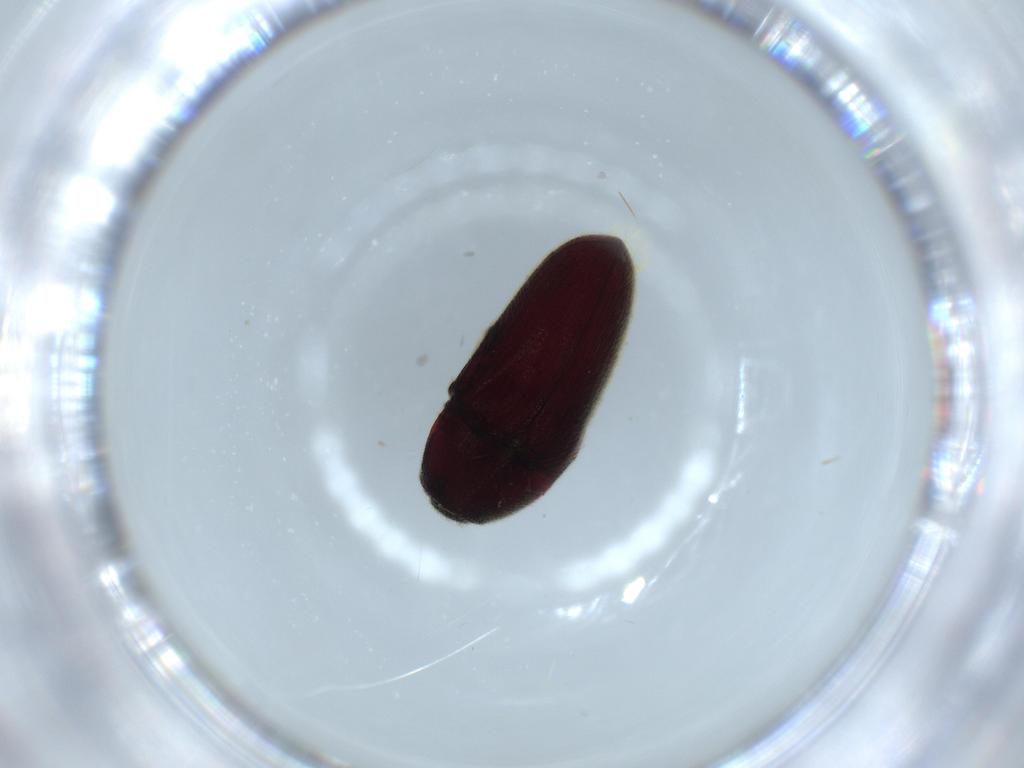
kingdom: Animalia
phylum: Arthropoda
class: Insecta
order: Coleoptera
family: Throscidae
